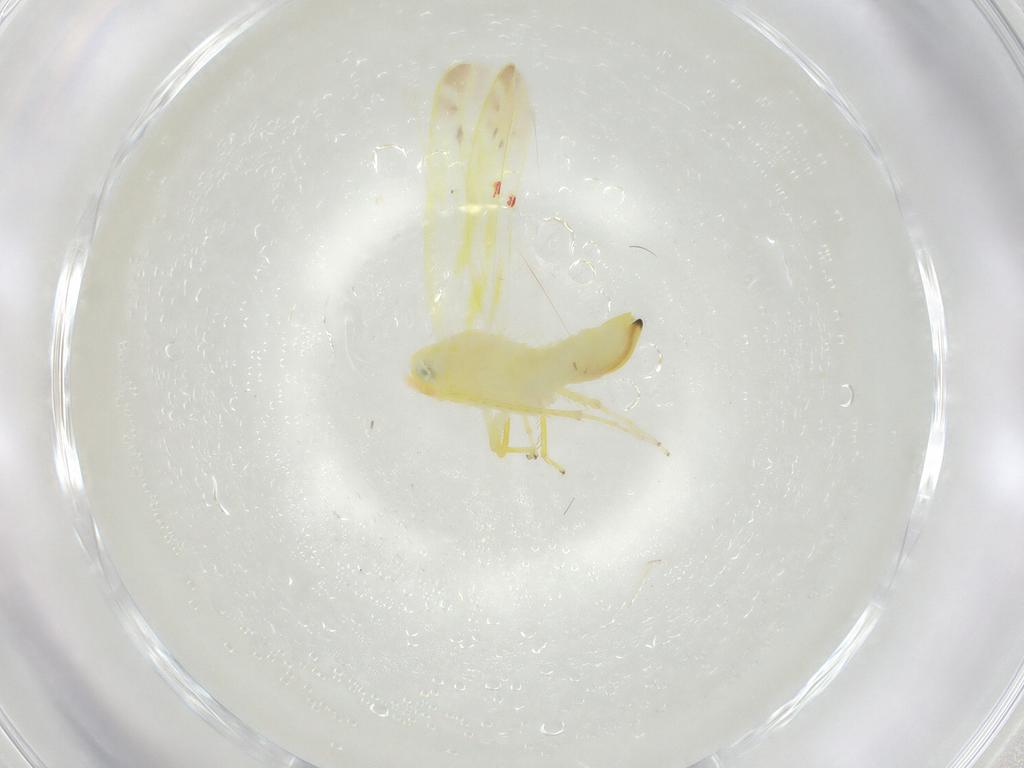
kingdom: Animalia
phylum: Arthropoda
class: Insecta
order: Hemiptera
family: Cicadellidae
